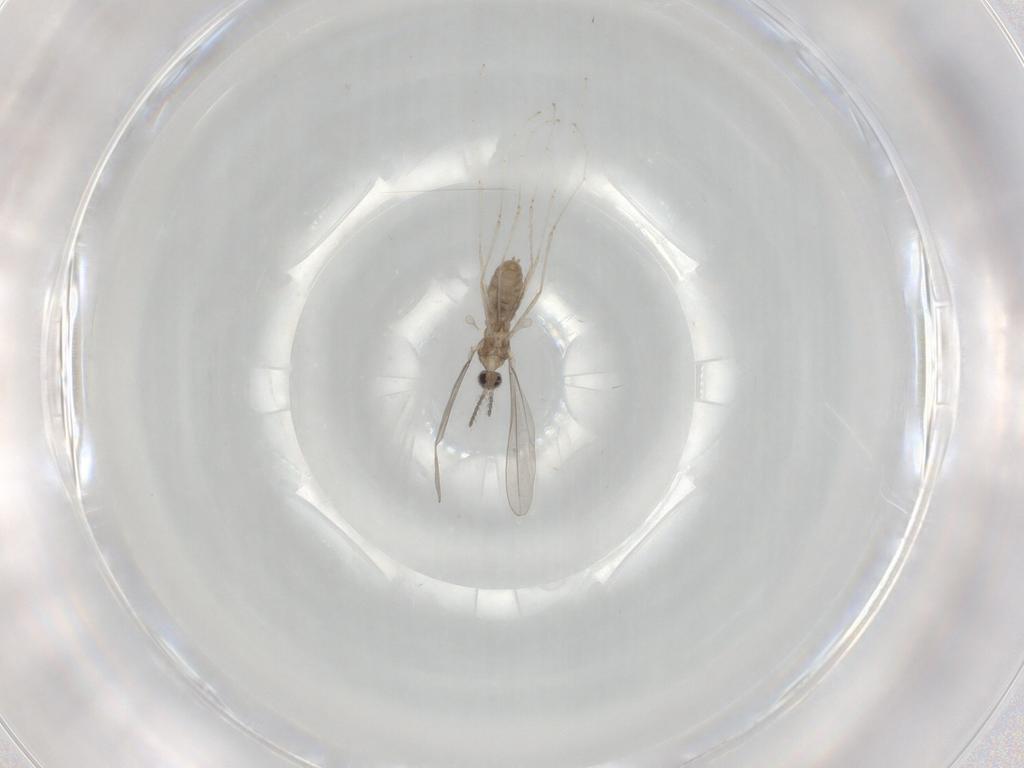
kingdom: Animalia
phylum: Arthropoda
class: Insecta
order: Diptera
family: Cecidomyiidae
